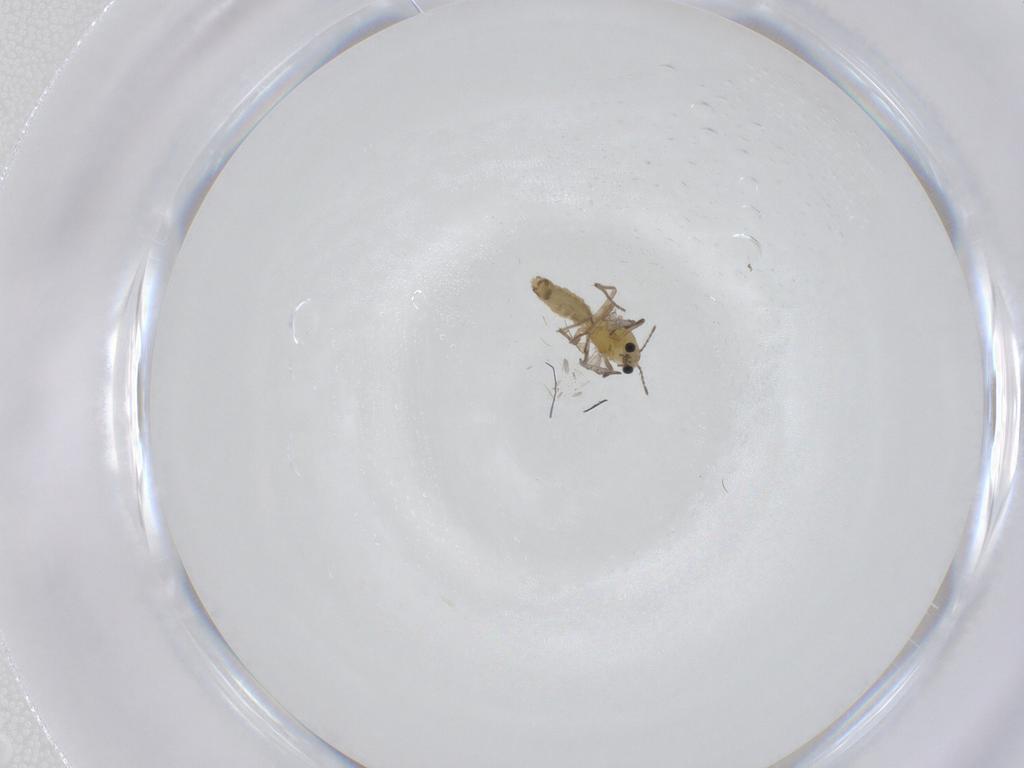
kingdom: Animalia
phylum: Arthropoda
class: Insecta
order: Diptera
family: Chironomidae
